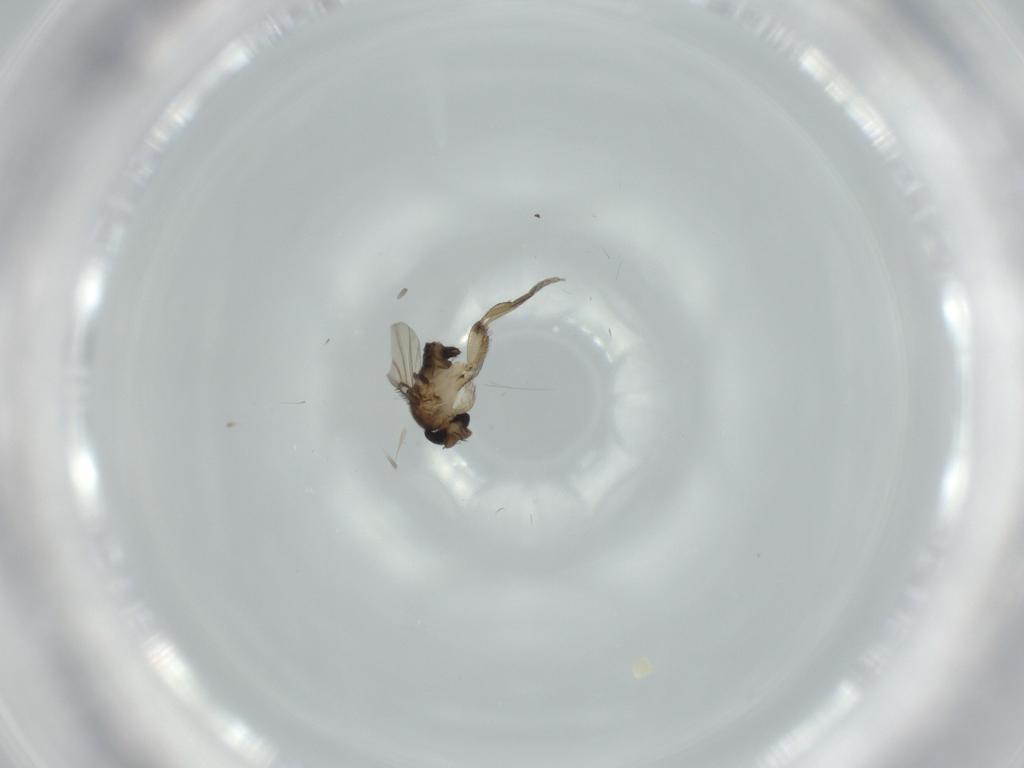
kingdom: Animalia
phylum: Arthropoda
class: Insecta
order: Diptera
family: Phoridae
